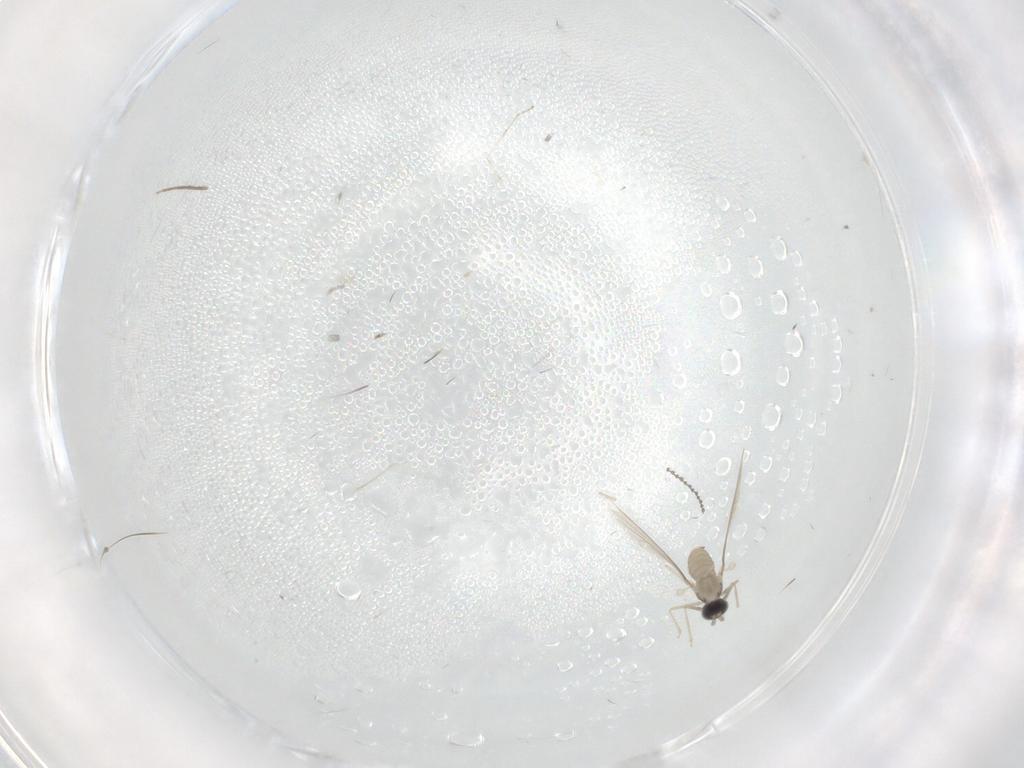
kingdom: Animalia
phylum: Arthropoda
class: Insecta
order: Diptera
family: Cecidomyiidae
